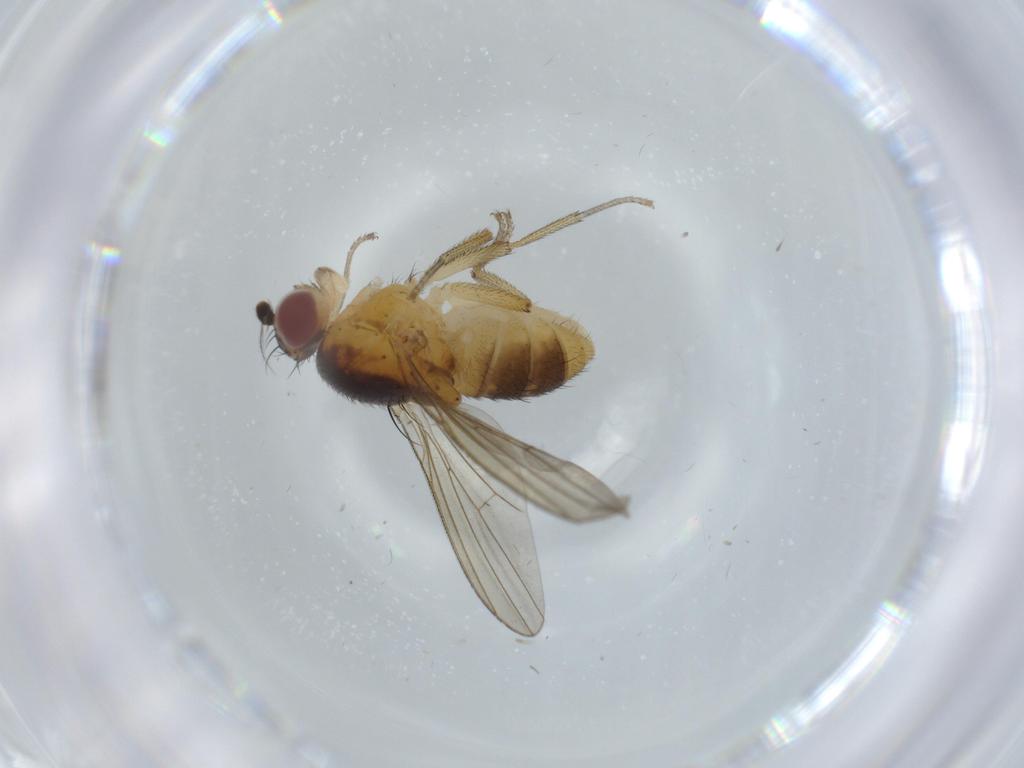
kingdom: Animalia
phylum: Arthropoda
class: Insecta
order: Diptera
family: Lauxaniidae
